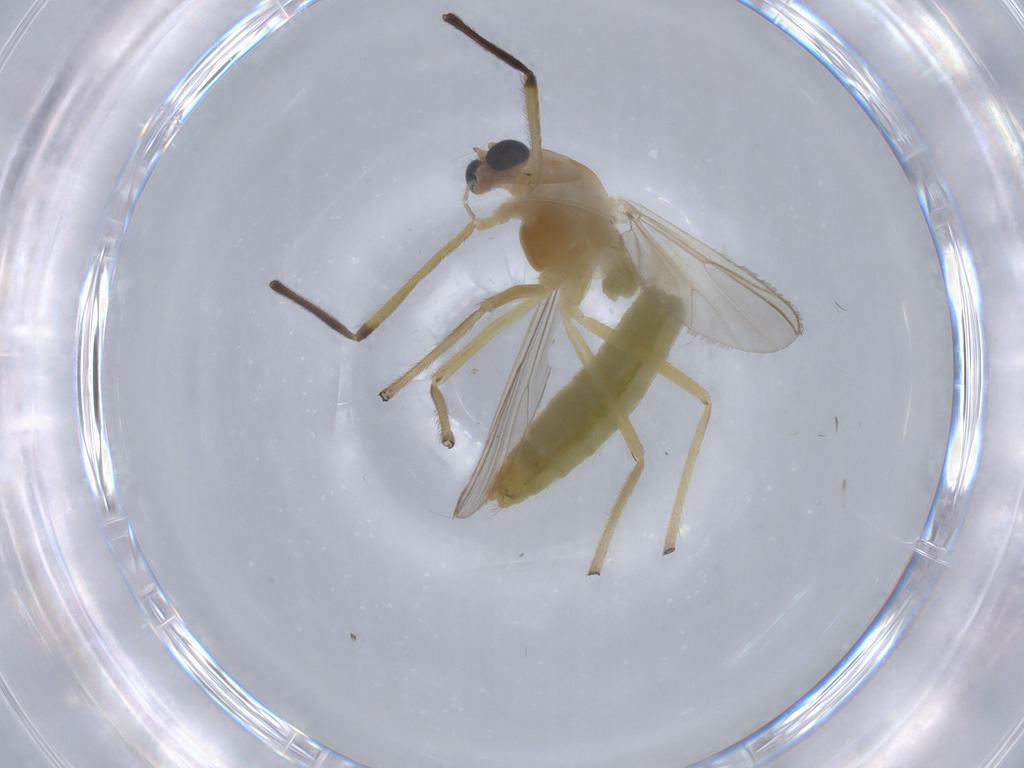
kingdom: Animalia
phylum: Arthropoda
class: Insecta
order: Diptera
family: Chironomidae
